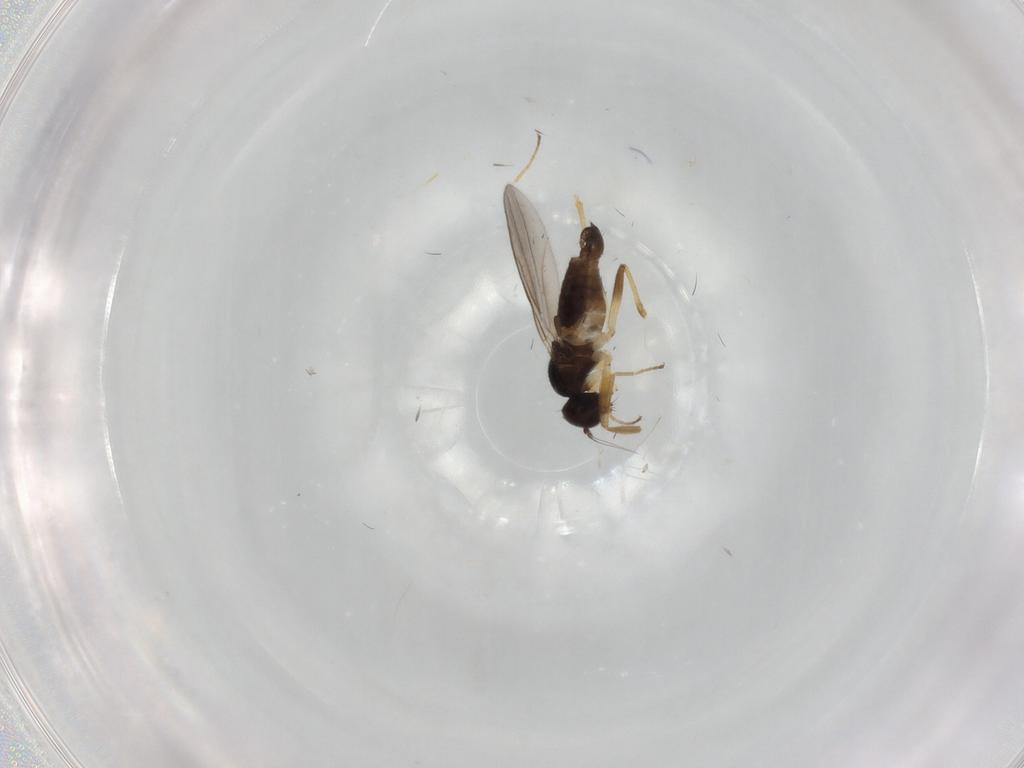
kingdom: Animalia
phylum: Arthropoda
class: Insecta
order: Diptera
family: Hybotidae
